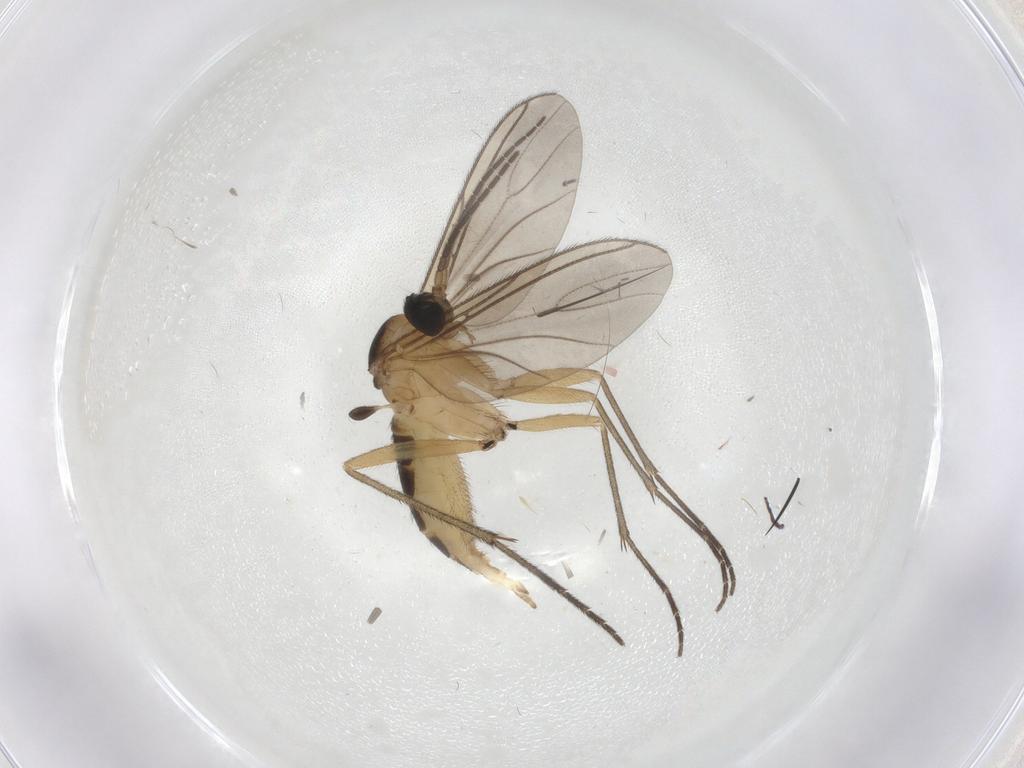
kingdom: Animalia
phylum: Arthropoda
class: Insecta
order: Diptera
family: Sciaridae
